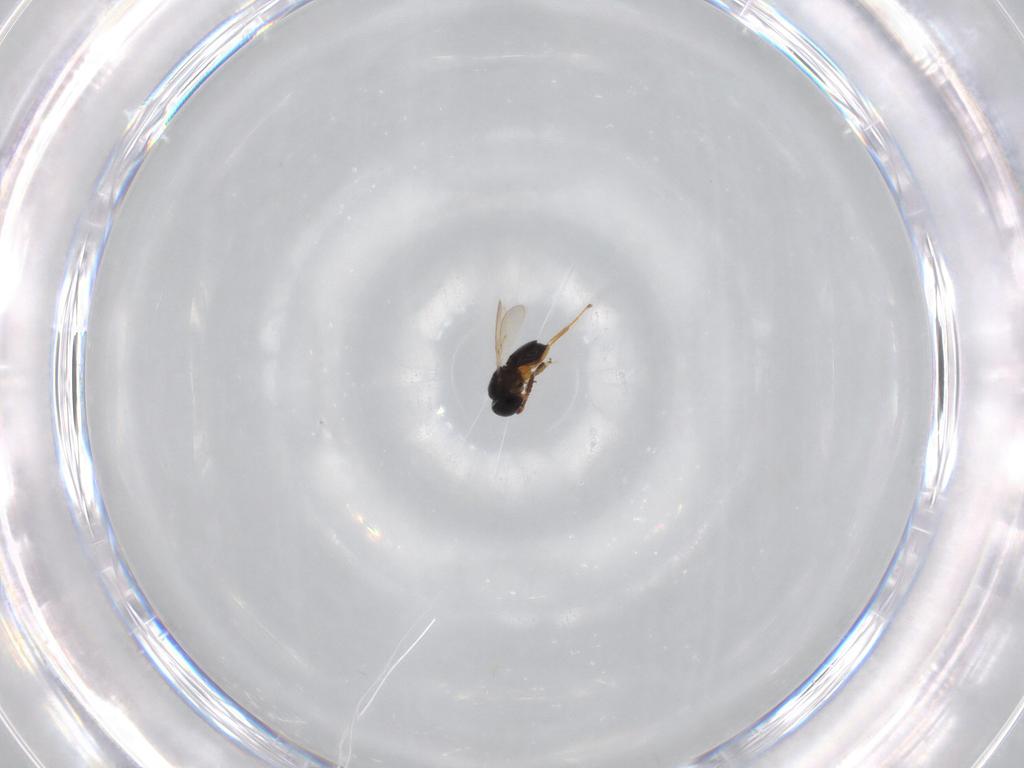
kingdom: Animalia
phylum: Arthropoda
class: Insecta
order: Hymenoptera
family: Scelionidae
